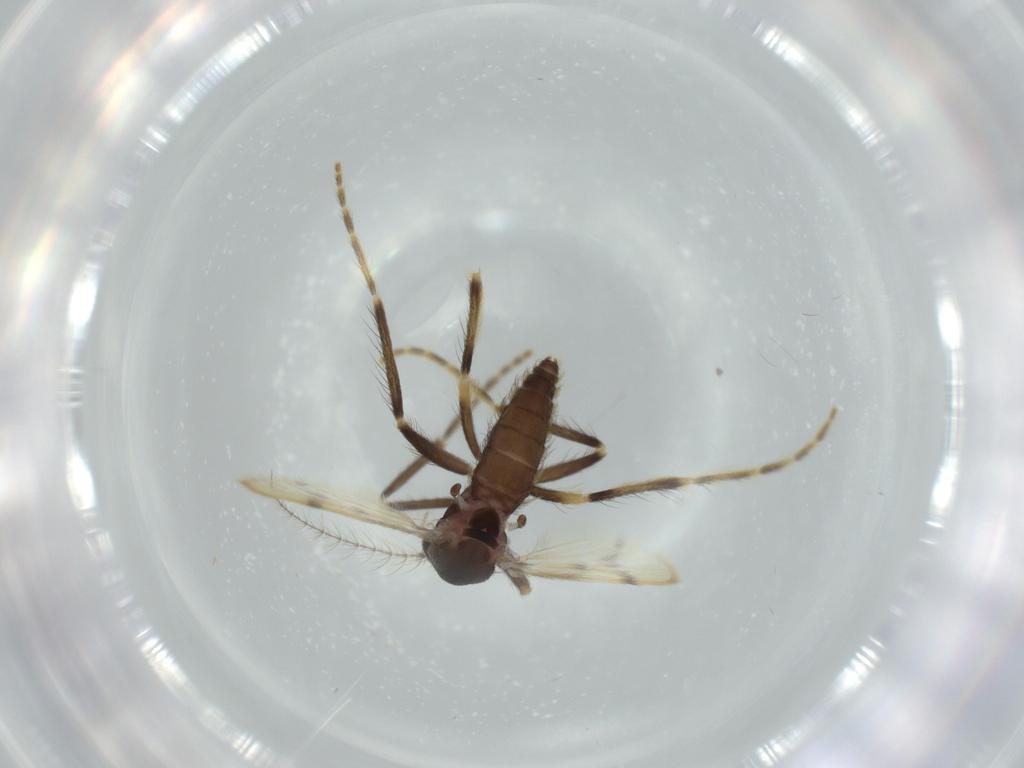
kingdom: Animalia
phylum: Arthropoda
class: Insecta
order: Diptera
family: Corethrellidae
